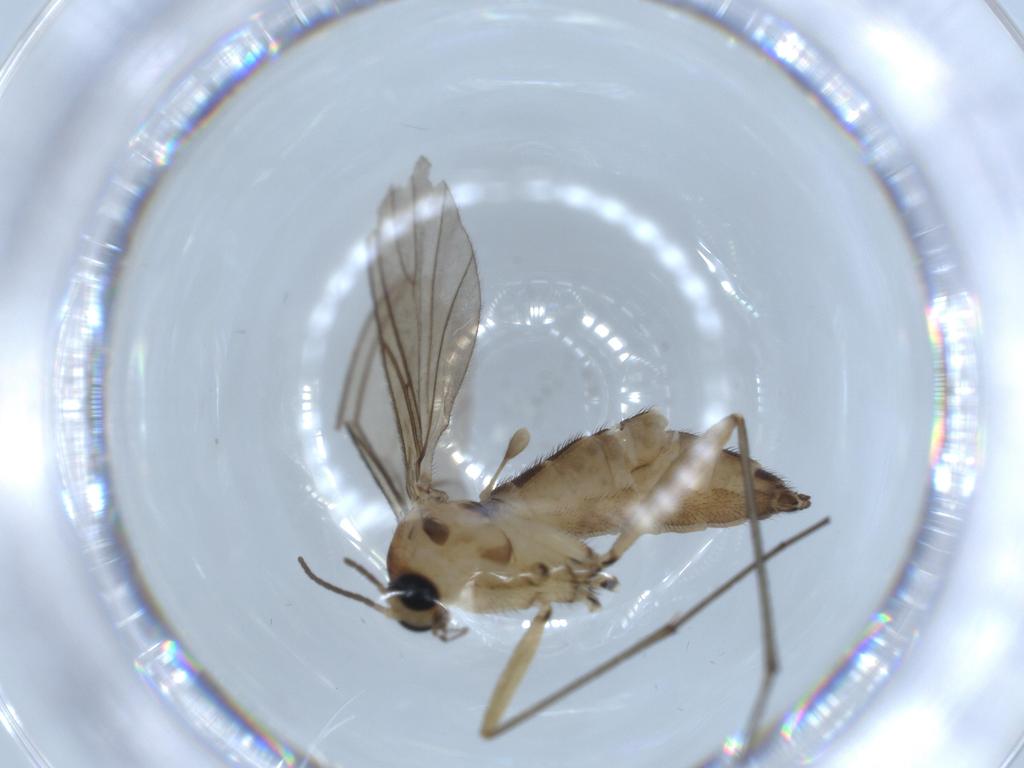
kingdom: Animalia
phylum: Arthropoda
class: Insecta
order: Diptera
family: Sciaridae
